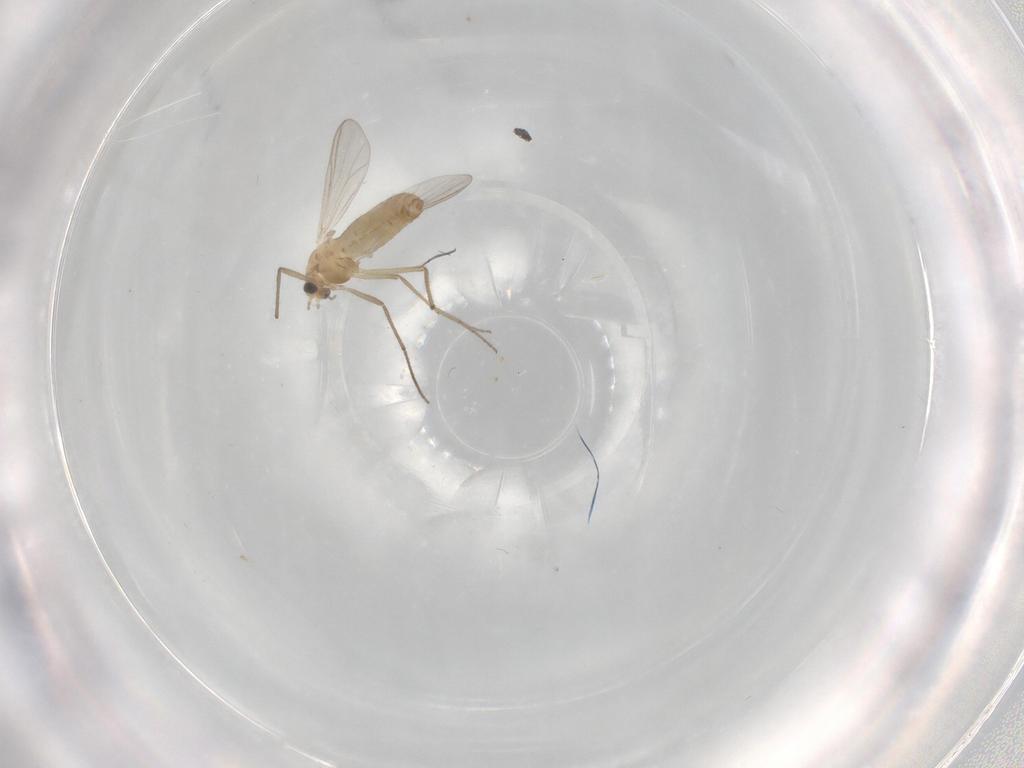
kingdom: Animalia
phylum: Arthropoda
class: Insecta
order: Diptera
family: Chironomidae
